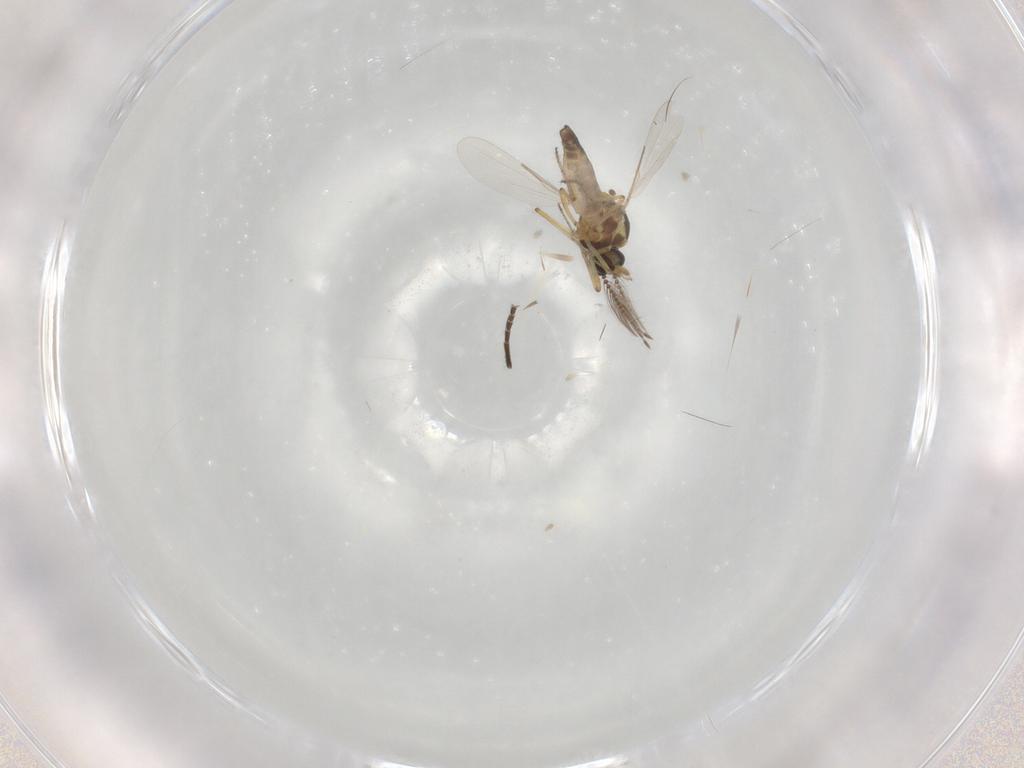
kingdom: Animalia
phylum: Arthropoda
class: Insecta
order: Diptera
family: Ceratopogonidae
